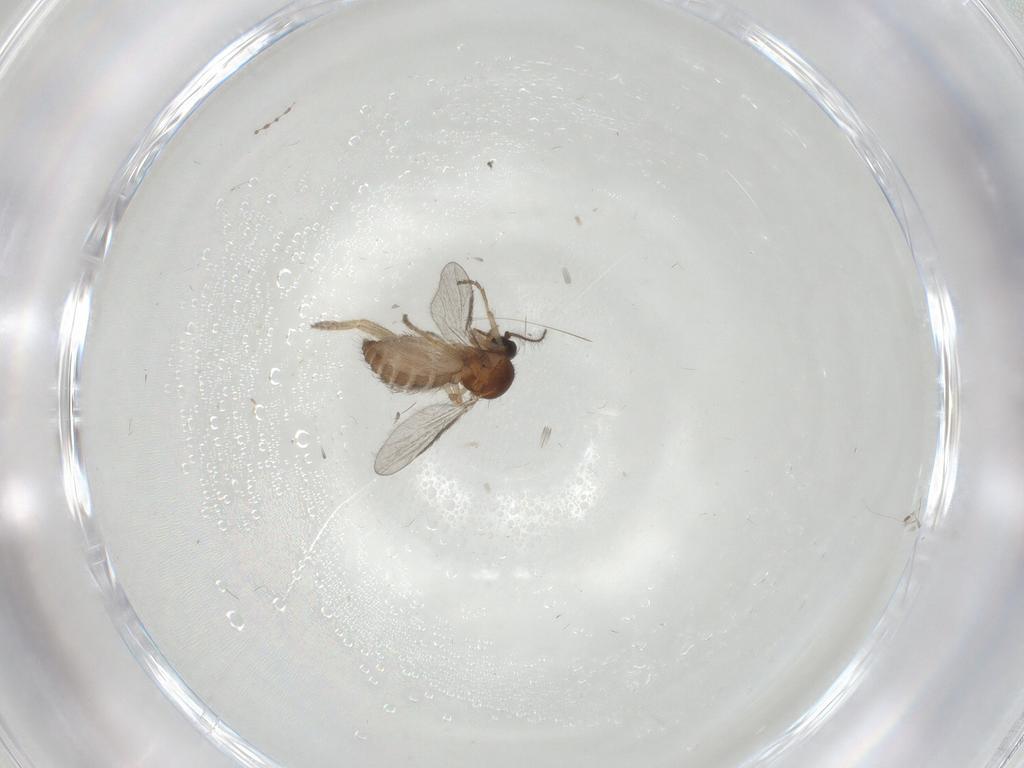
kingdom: Animalia
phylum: Arthropoda
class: Insecta
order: Diptera
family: Ceratopogonidae
